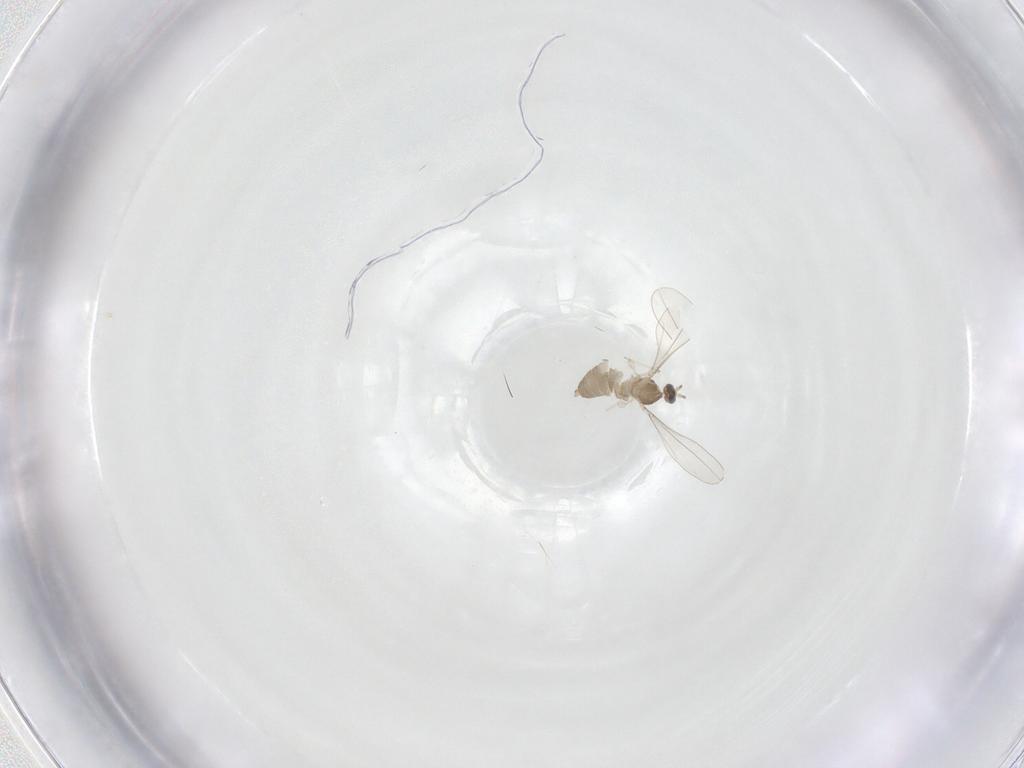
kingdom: Animalia
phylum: Arthropoda
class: Insecta
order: Diptera
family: Cecidomyiidae
